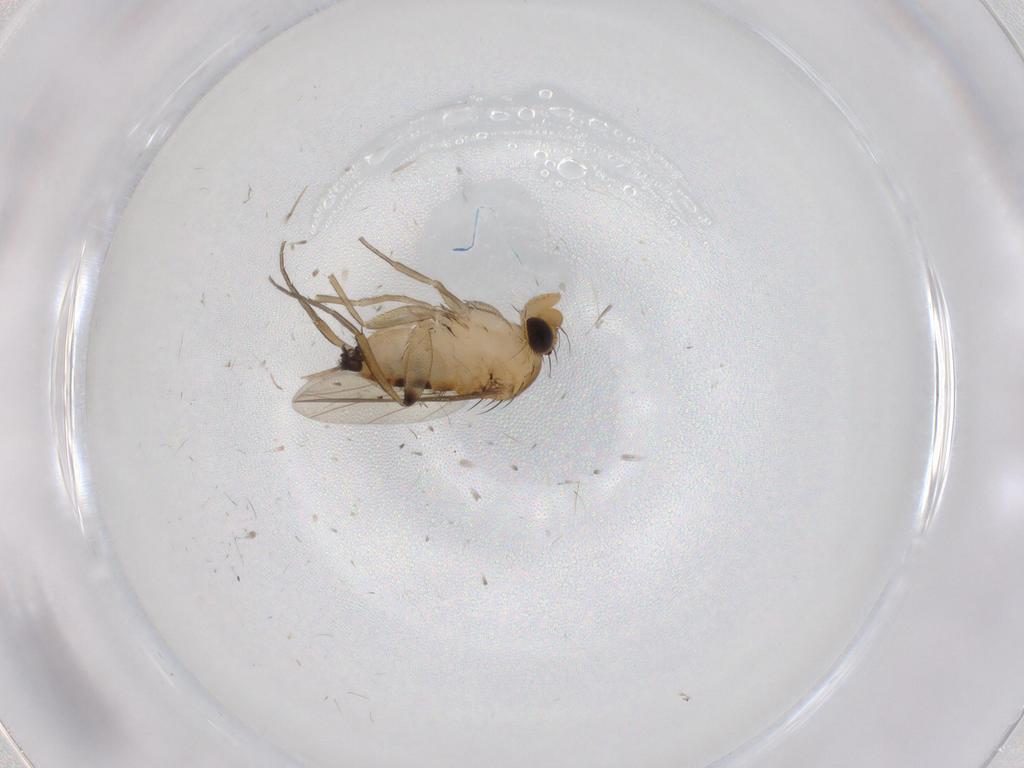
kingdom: Animalia
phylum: Arthropoda
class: Insecta
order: Diptera
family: Phoridae
